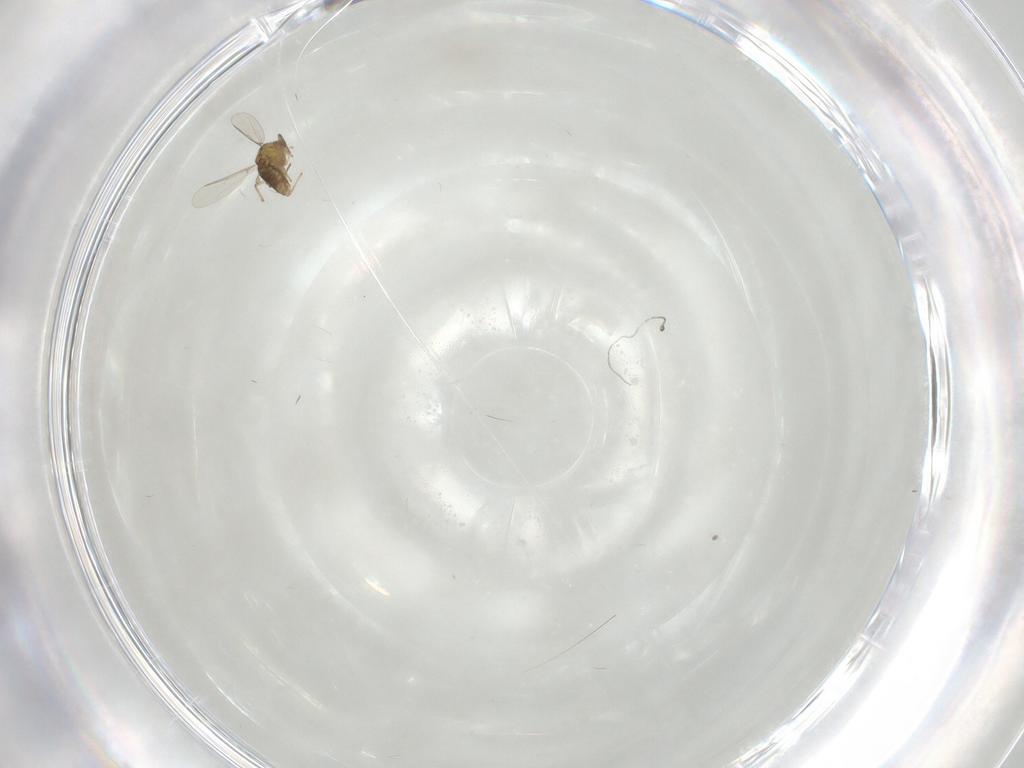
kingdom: Animalia
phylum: Arthropoda
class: Insecta
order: Diptera
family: Chironomidae
